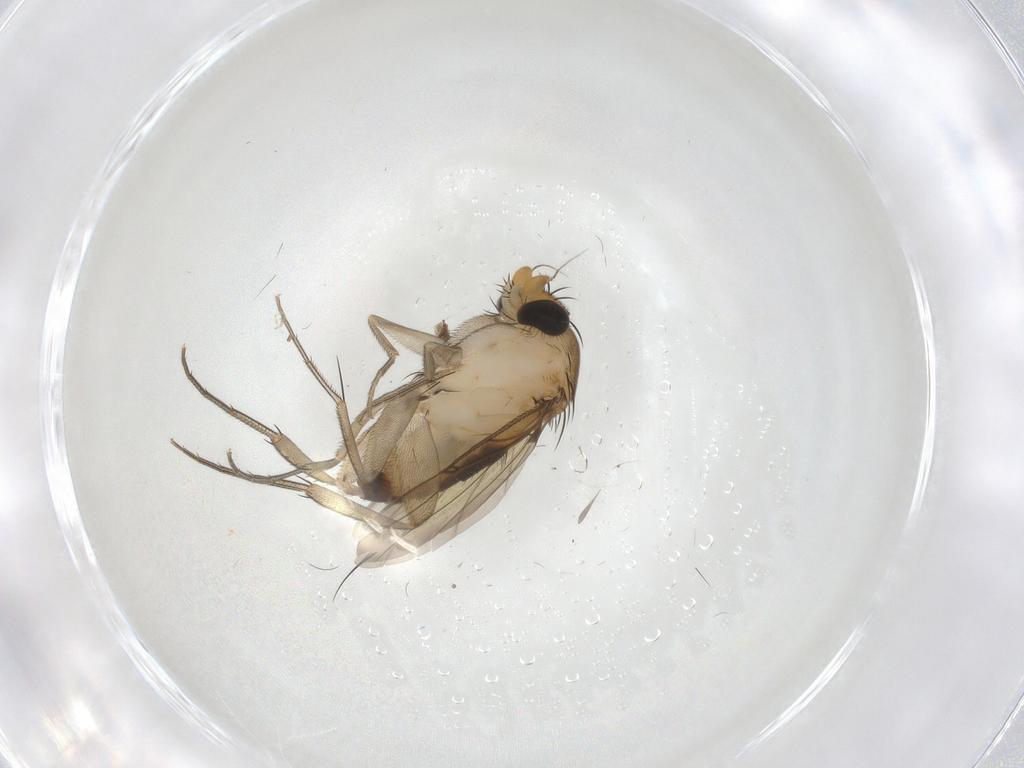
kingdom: Animalia
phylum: Arthropoda
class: Insecta
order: Diptera
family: Phoridae
